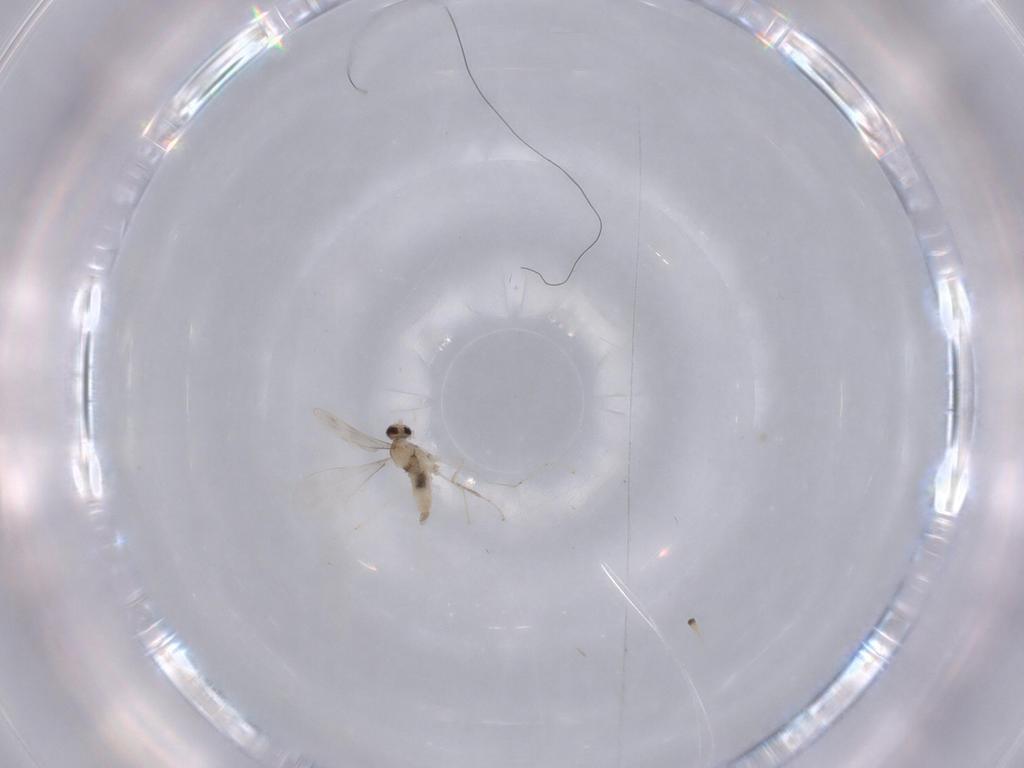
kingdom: Animalia
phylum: Arthropoda
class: Insecta
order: Diptera
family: Cecidomyiidae
